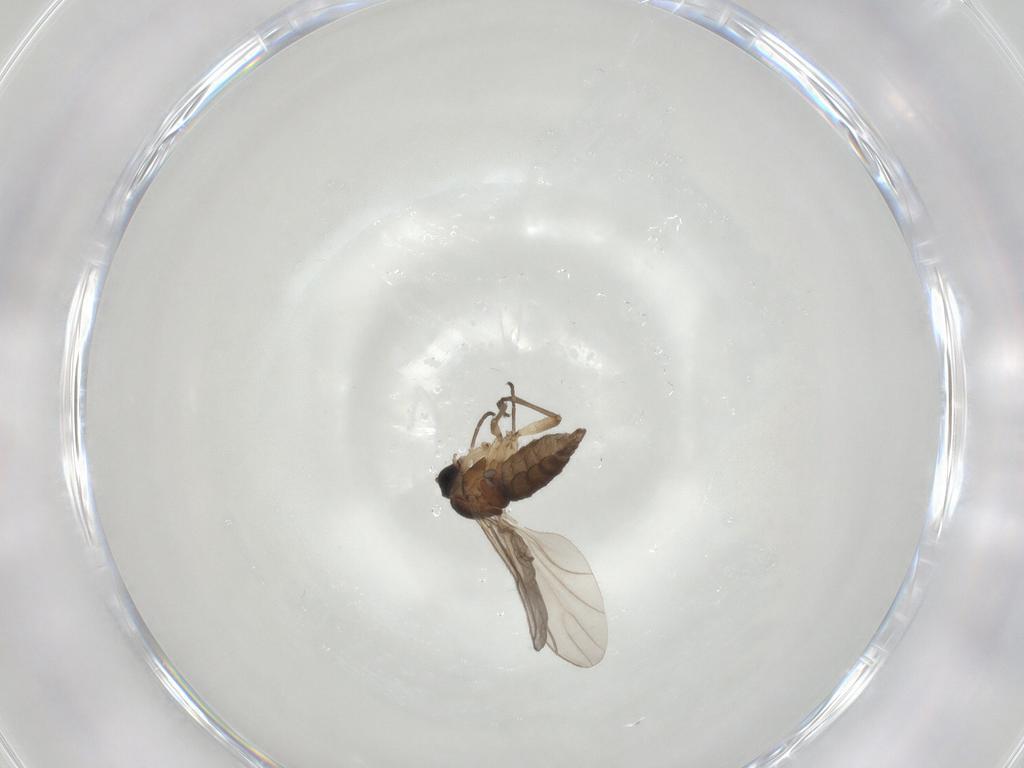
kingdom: Animalia
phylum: Arthropoda
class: Insecta
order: Diptera
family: Sciaridae
